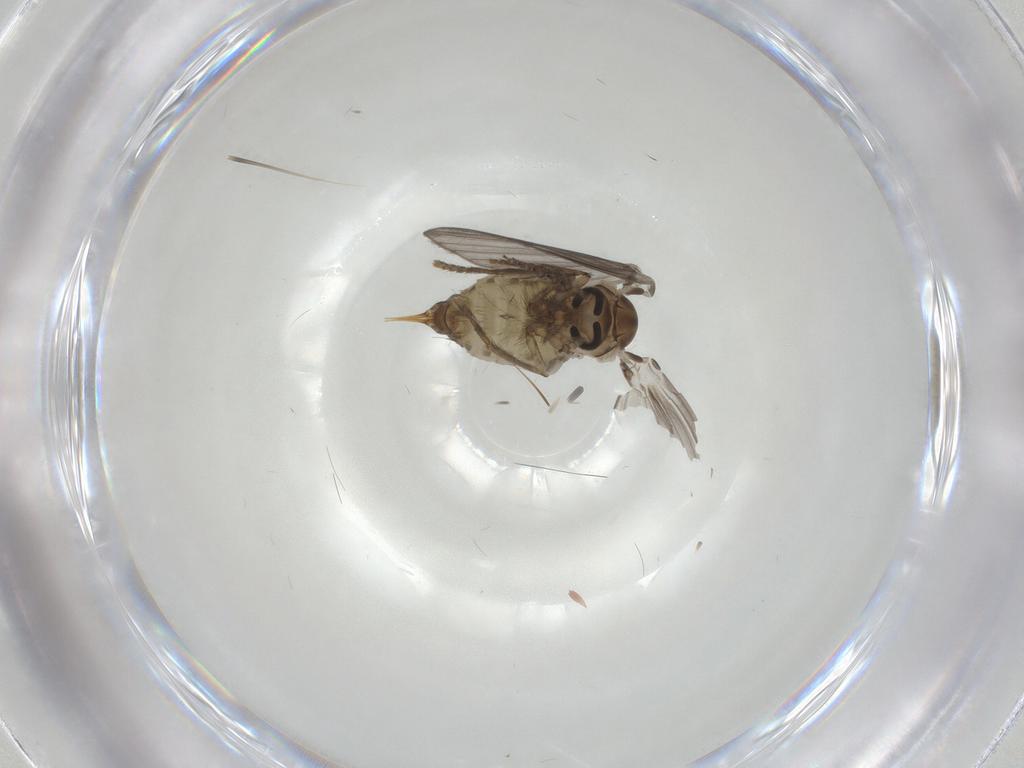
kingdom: Animalia
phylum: Arthropoda
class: Insecta
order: Diptera
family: Psychodidae
